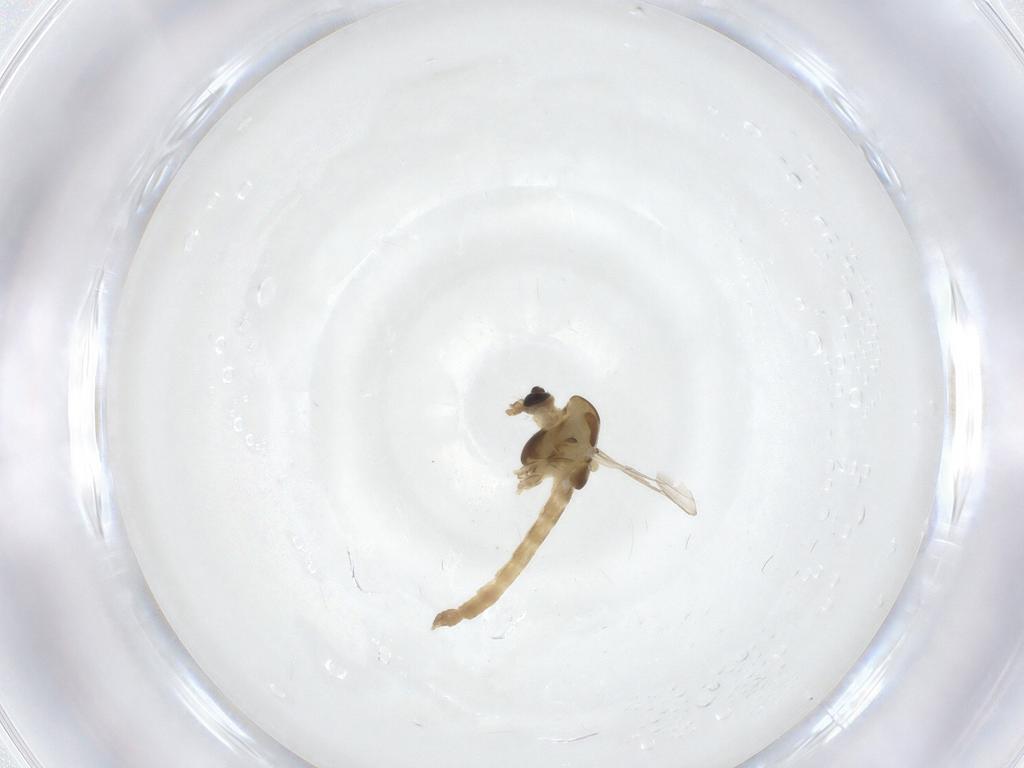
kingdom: Animalia
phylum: Arthropoda
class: Insecta
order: Diptera
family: Chironomidae
